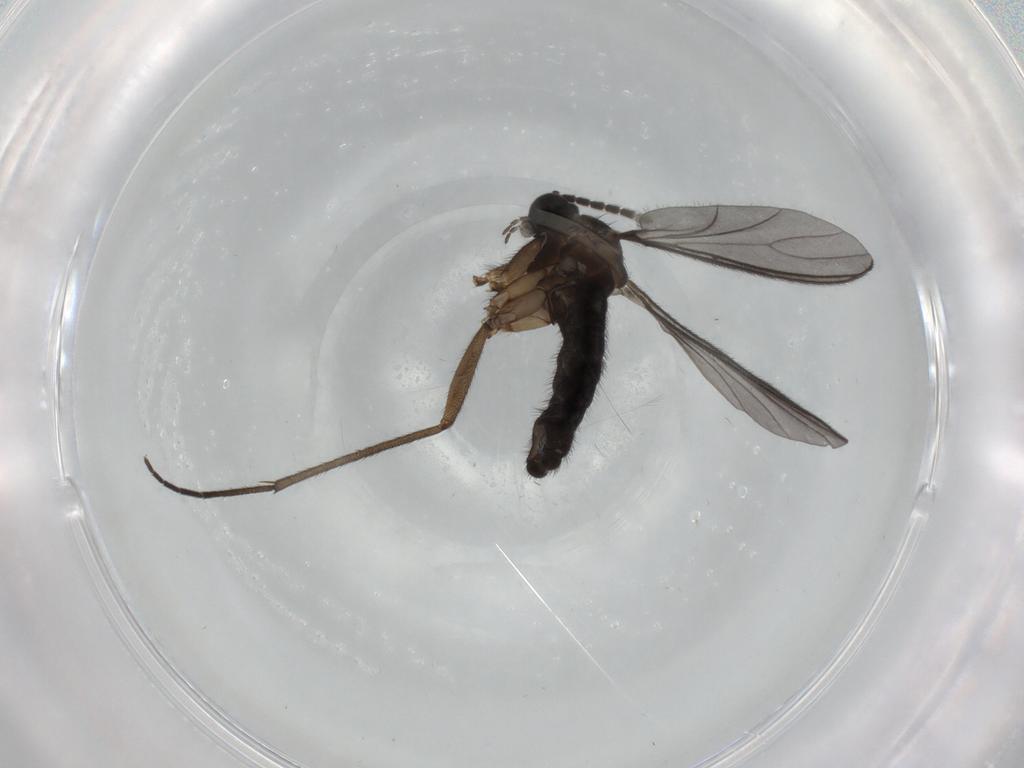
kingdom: Animalia
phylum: Arthropoda
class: Insecta
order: Diptera
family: Sciaridae
